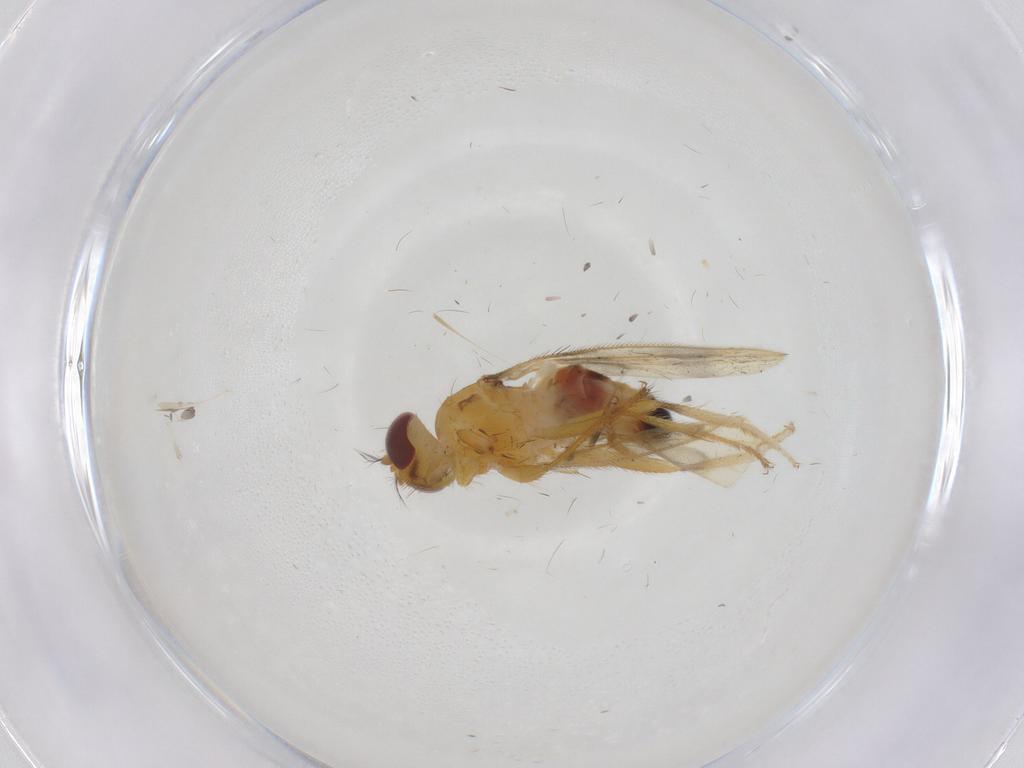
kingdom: Animalia
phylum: Arthropoda
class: Insecta
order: Diptera
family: Periscelididae
